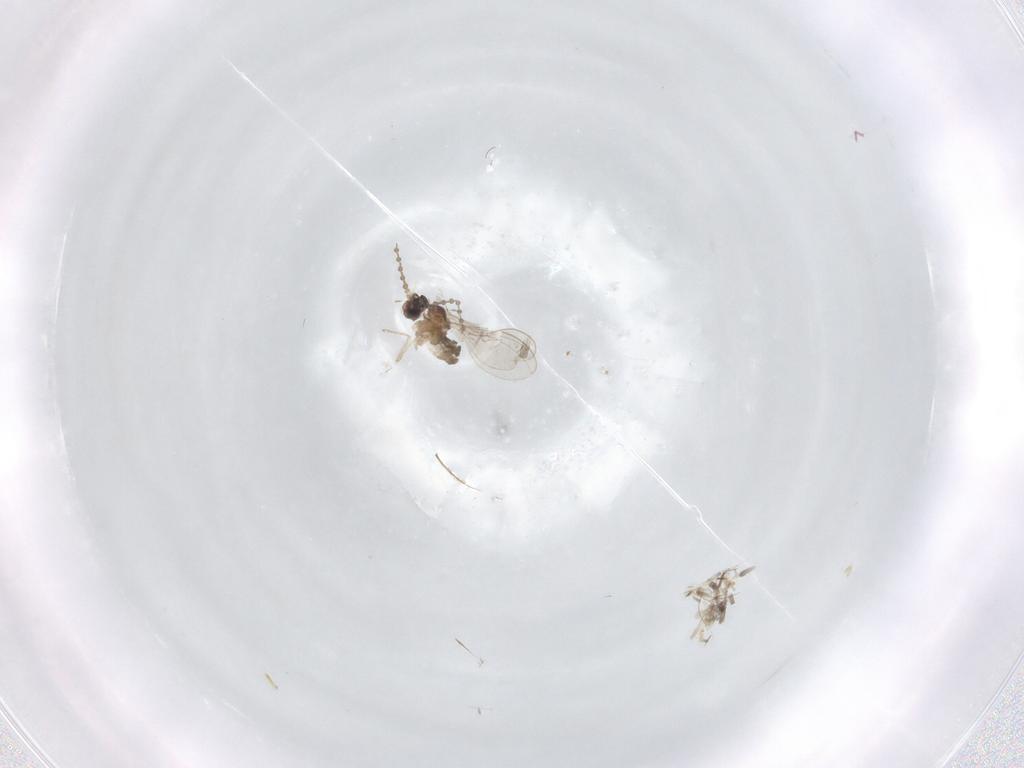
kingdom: Animalia
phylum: Arthropoda
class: Insecta
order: Diptera
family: Cecidomyiidae
